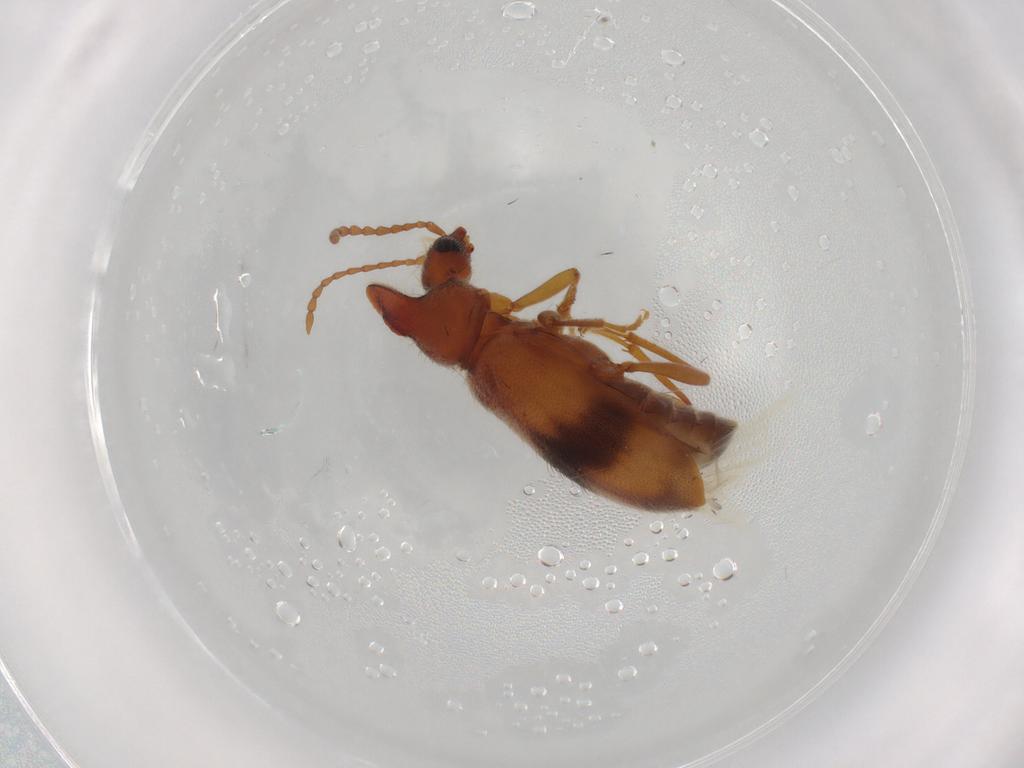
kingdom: Animalia
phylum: Arthropoda
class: Insecta
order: Coleoptera
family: Anthicidae
